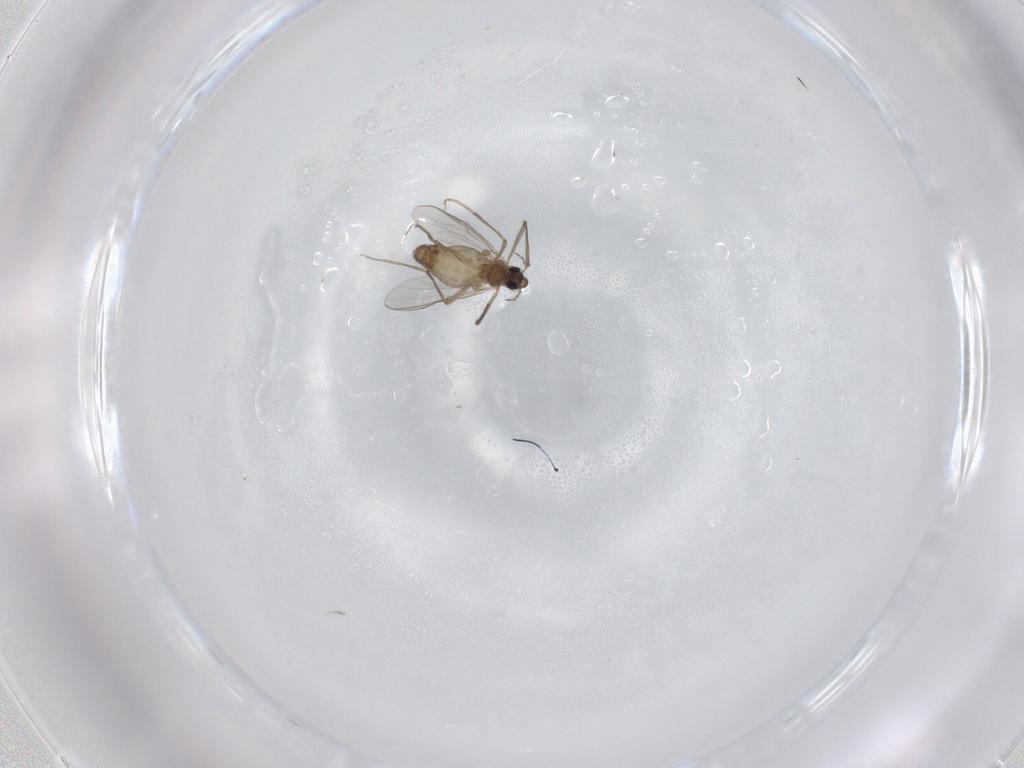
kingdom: Animalia
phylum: Arthropoda
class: Insecta
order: Diptera
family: Chironomidae
